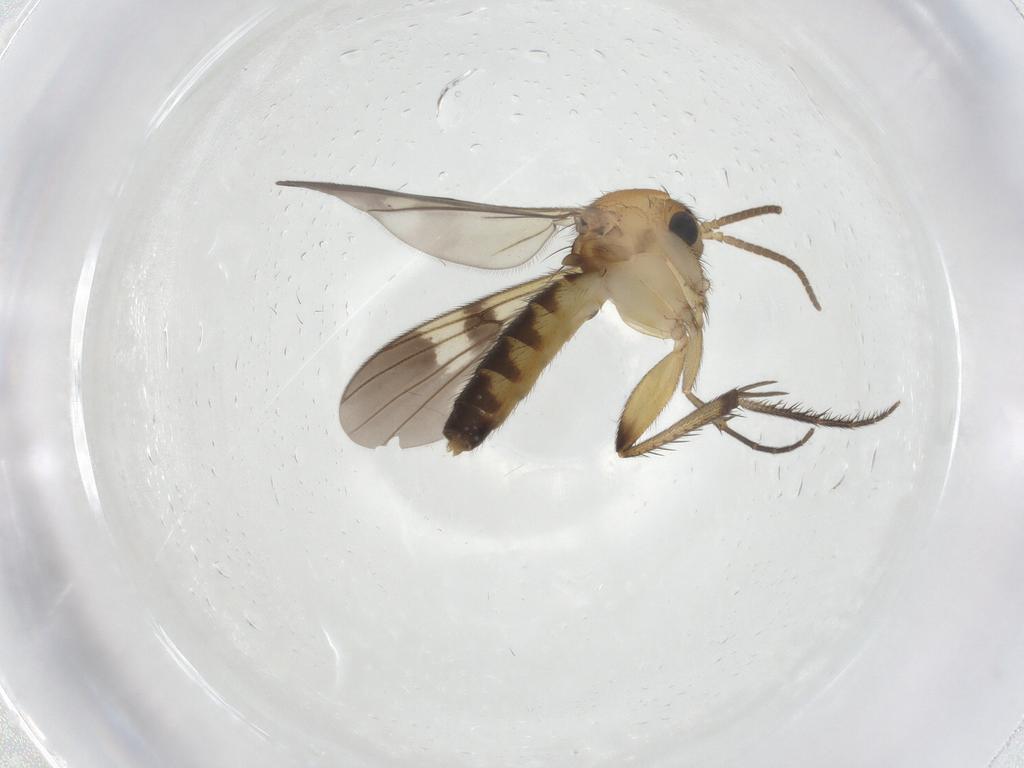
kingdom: Animalia
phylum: Arthropoda
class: Insecta
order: Diptera
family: Mycetophilidae
